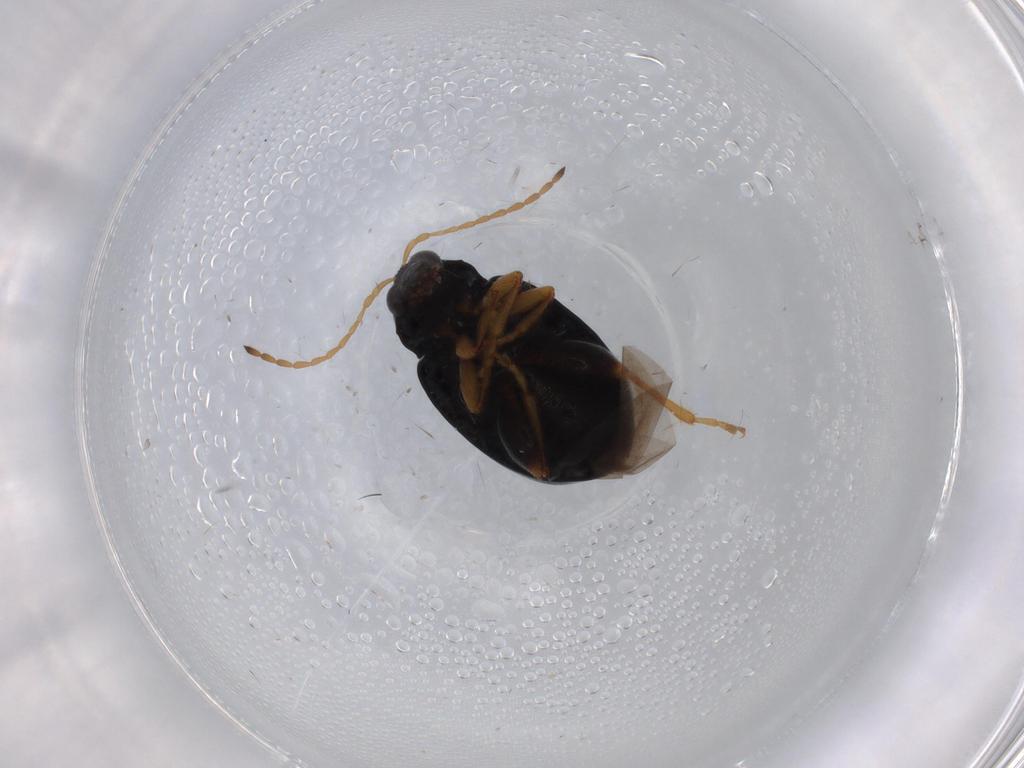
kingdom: Animalia
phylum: Arthropoda
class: Insecta
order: Coleoptera
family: Chrysomelidae
